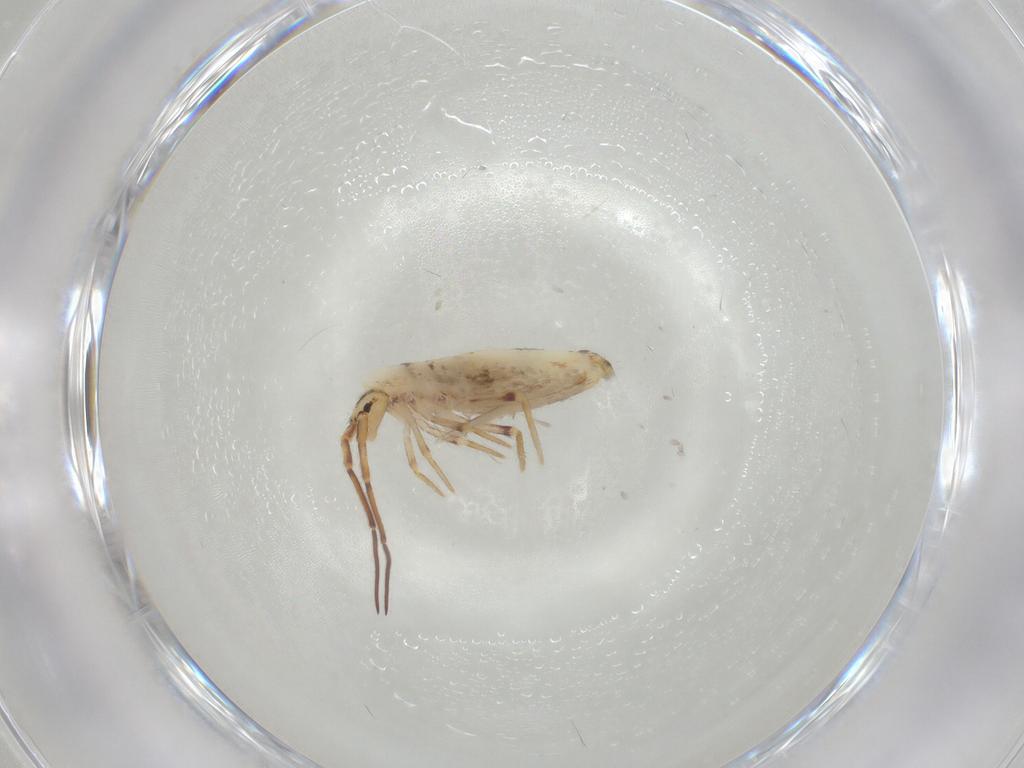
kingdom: Animalia
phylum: Arthropoda
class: Collembola
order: Poduromorpha
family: Hypogastruridae
